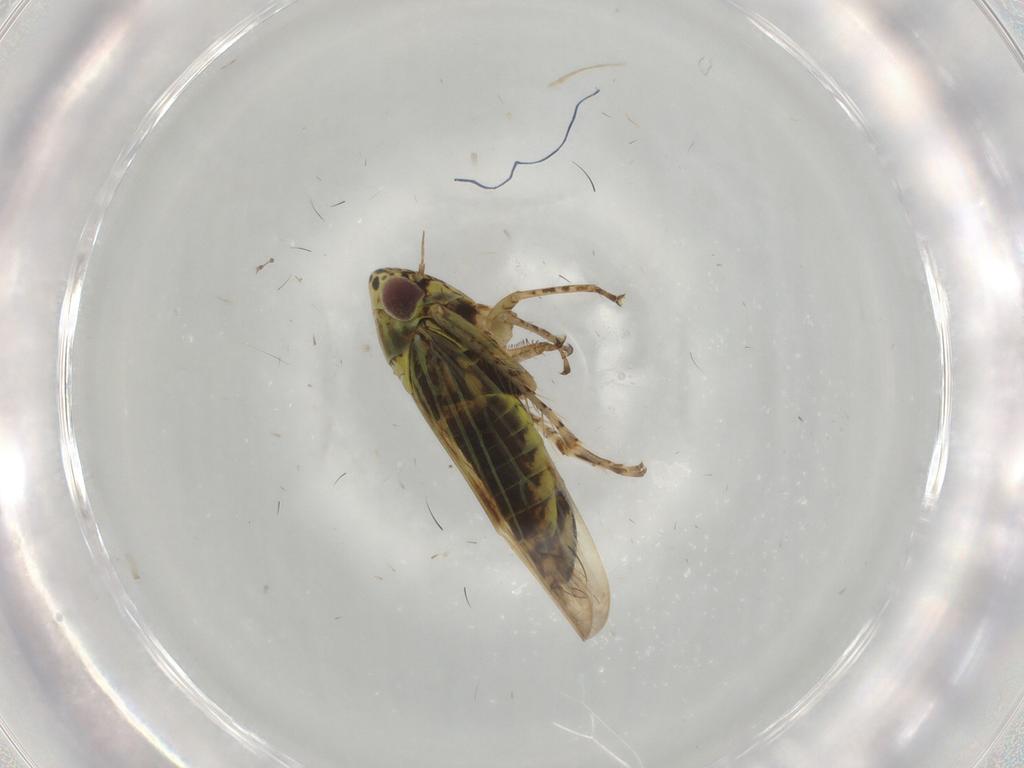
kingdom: Animalia
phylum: Arthropoda
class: Insecta
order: Hemiptera
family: Cicadellidae
